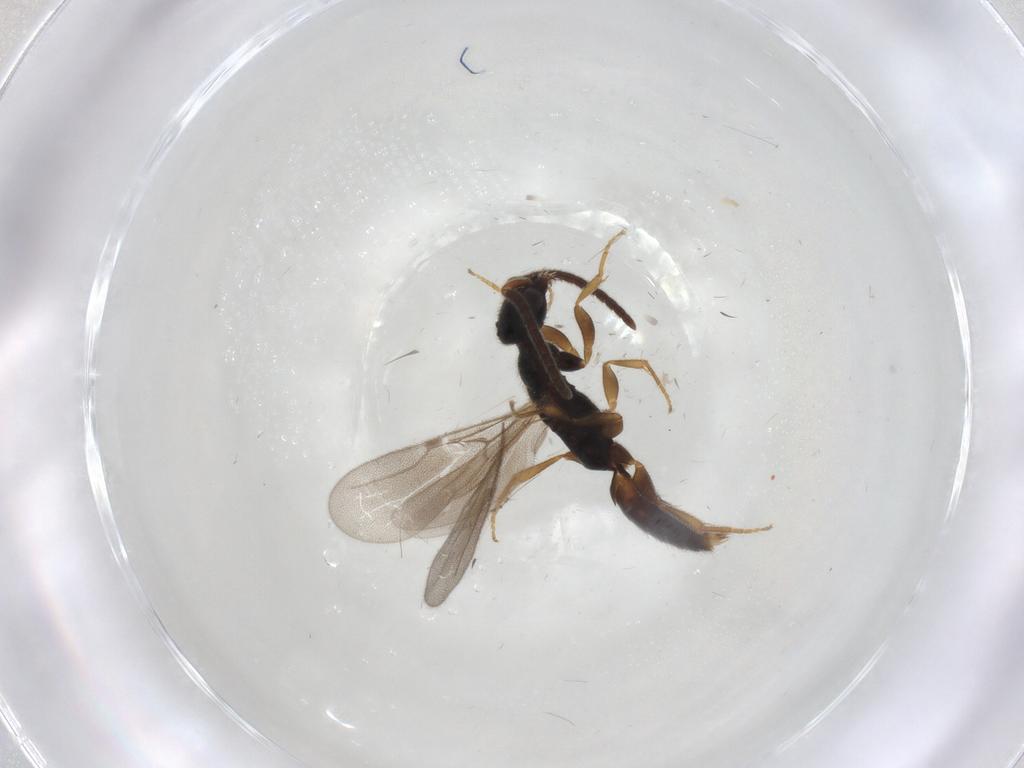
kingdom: Animalia
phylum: Arthropoda
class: Insecta
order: Hymenoptera
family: Bethylidae
